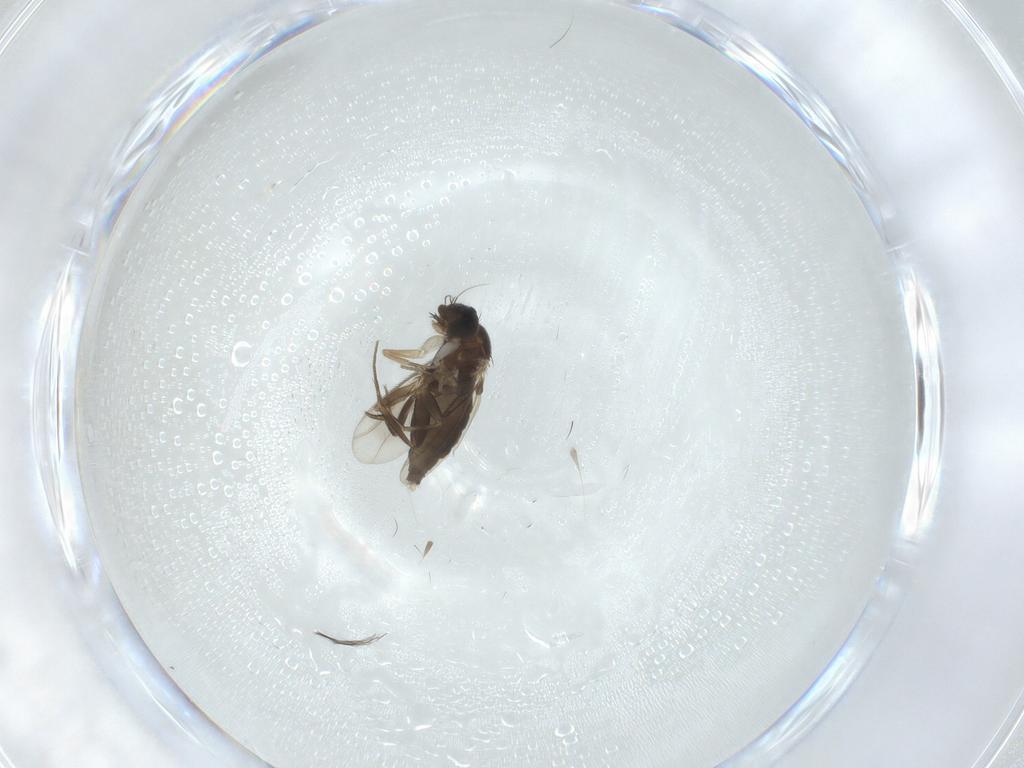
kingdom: Animalia
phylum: Arthropoda
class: Insecta
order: Diptera
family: Phoridae
